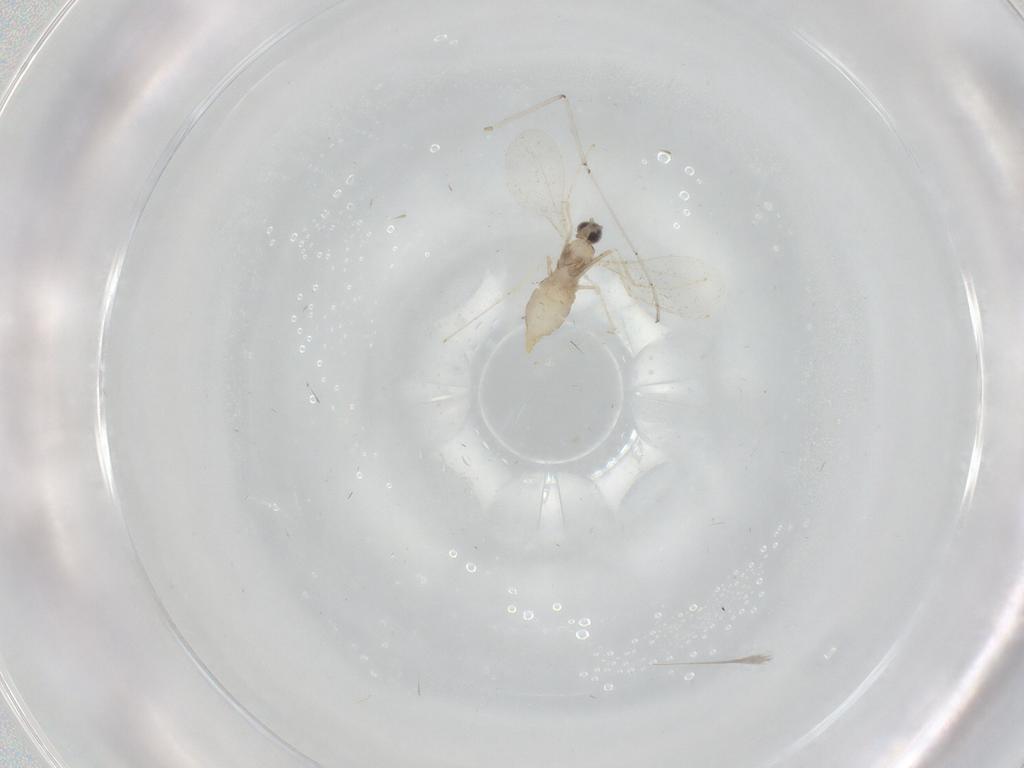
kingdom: Animalia
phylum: Arthropoda
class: Insecta
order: Diptera
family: Cecidomyiidae
